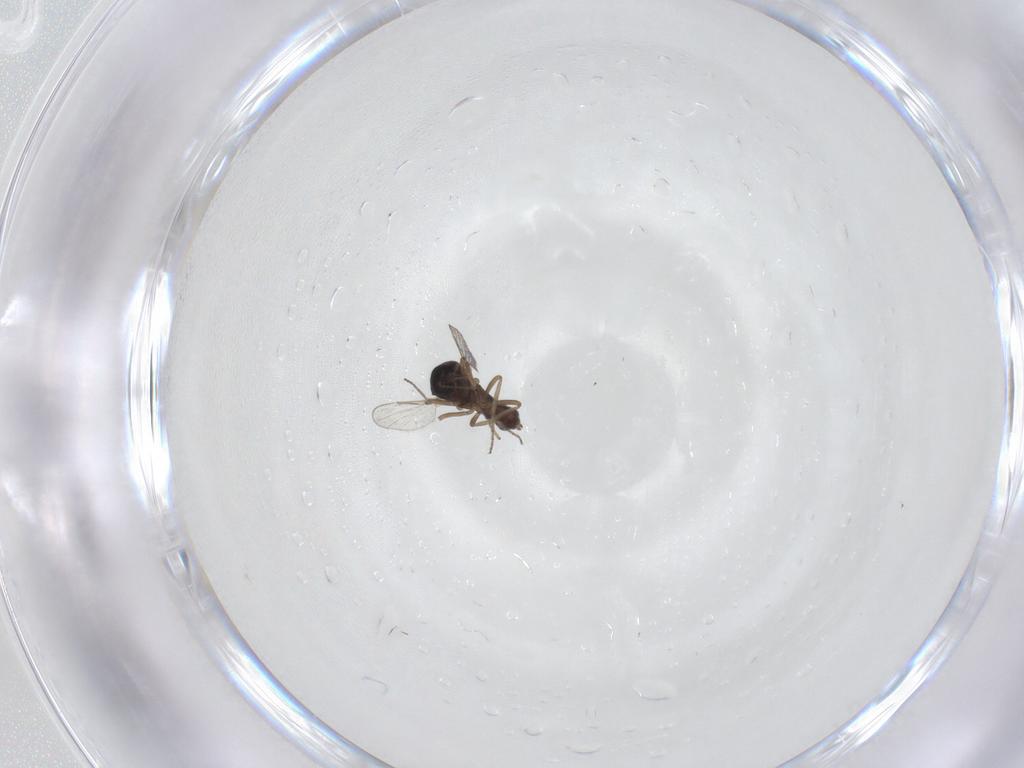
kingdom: Animalia
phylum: Arthropoda
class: Insecta
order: Diptera
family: Ceratopogonidae
